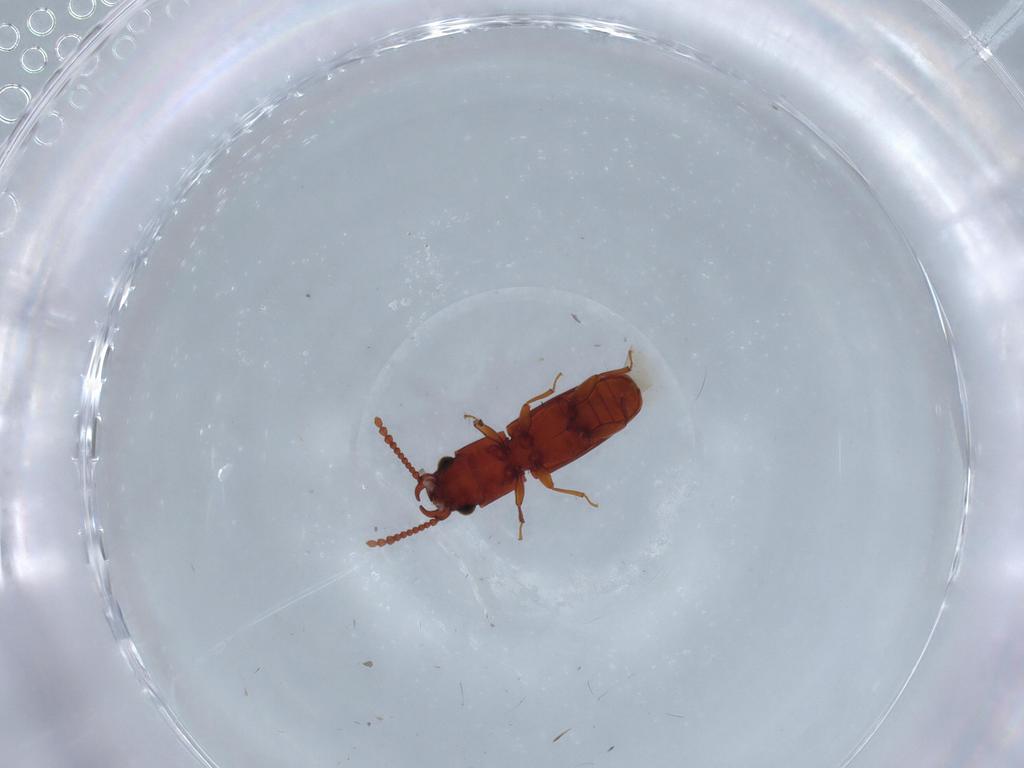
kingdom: Animalia
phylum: Arthropoda
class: Insecta
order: Coleoptera
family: Chrysomelidae
